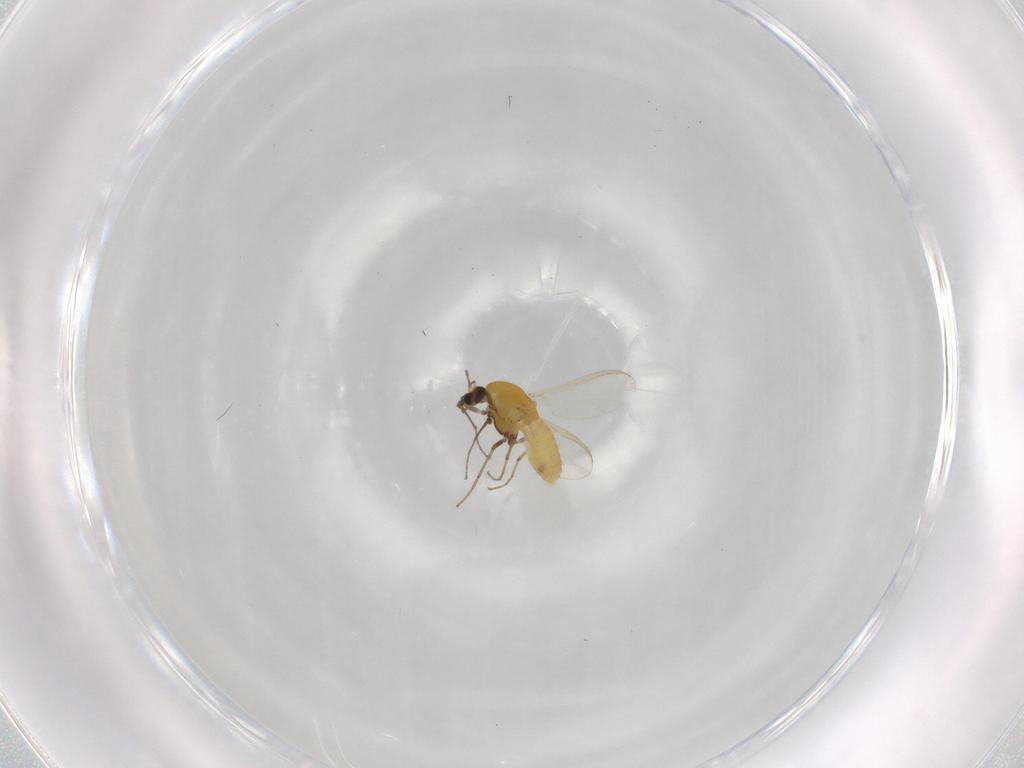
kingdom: Animalia
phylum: Arthropoda
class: Insecta
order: Diptera
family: Chironomidae
